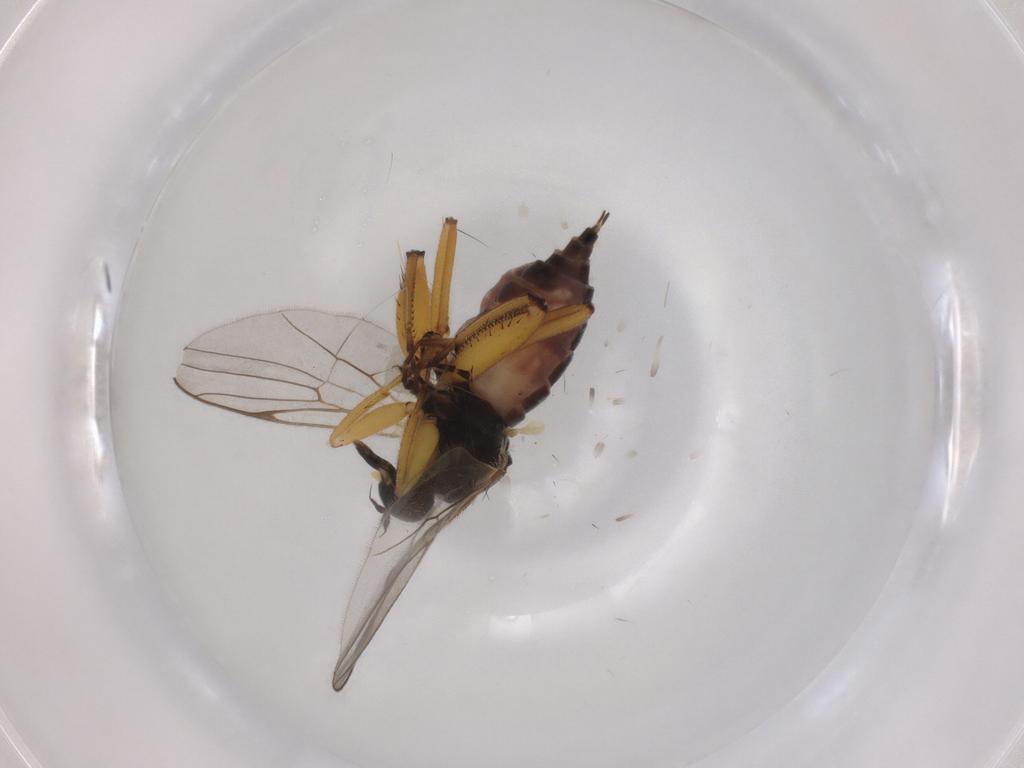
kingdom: Animalia
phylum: Arthropoda
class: Insecta
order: Diptera
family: Hybotidae
